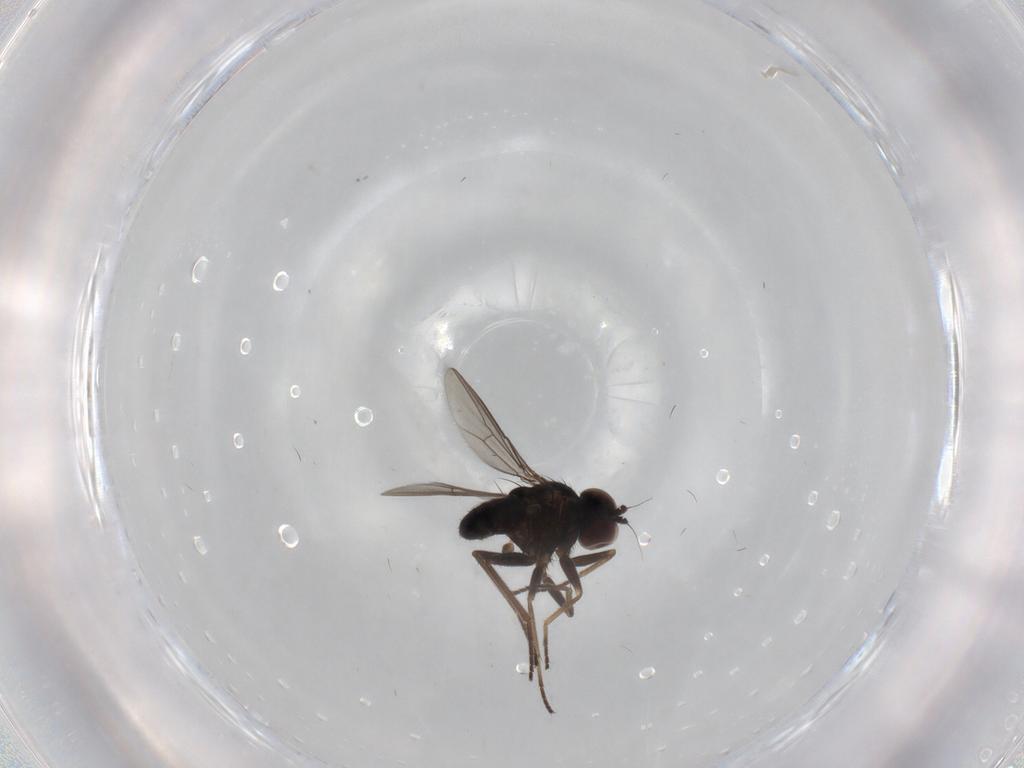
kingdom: Animalia
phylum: Arthropoda
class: Insecta
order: Diptera
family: Dolichopodidae
